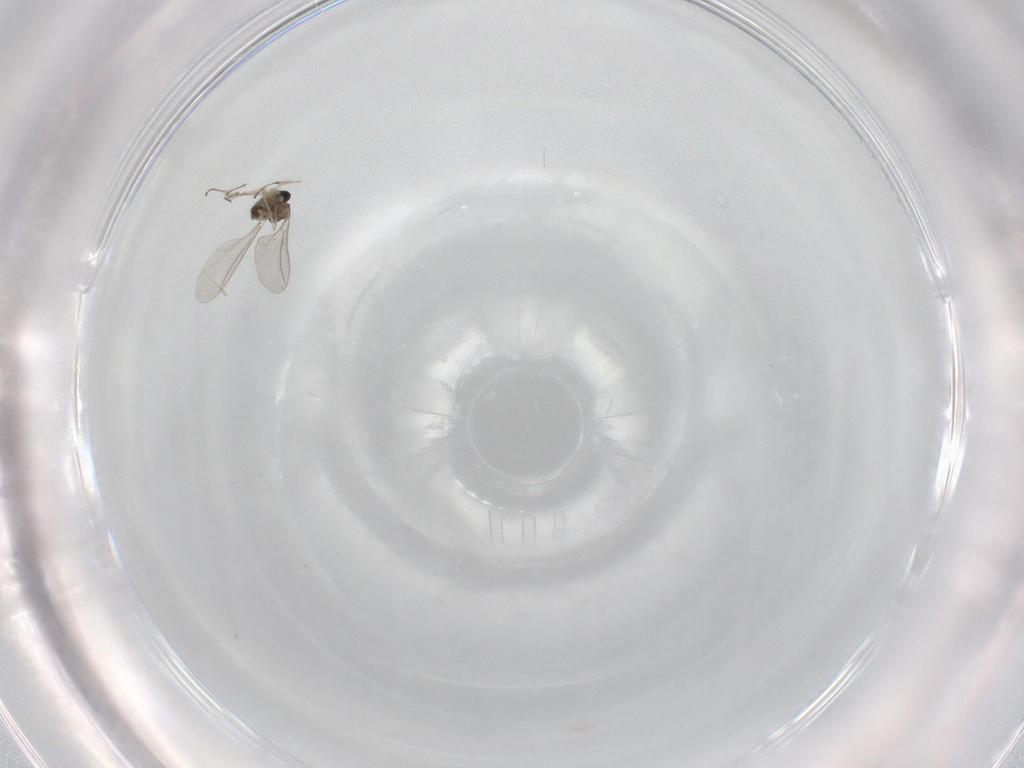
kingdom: Animalia
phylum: Arthropoda
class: Insecta
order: Diptera
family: Cecidomyiidae
